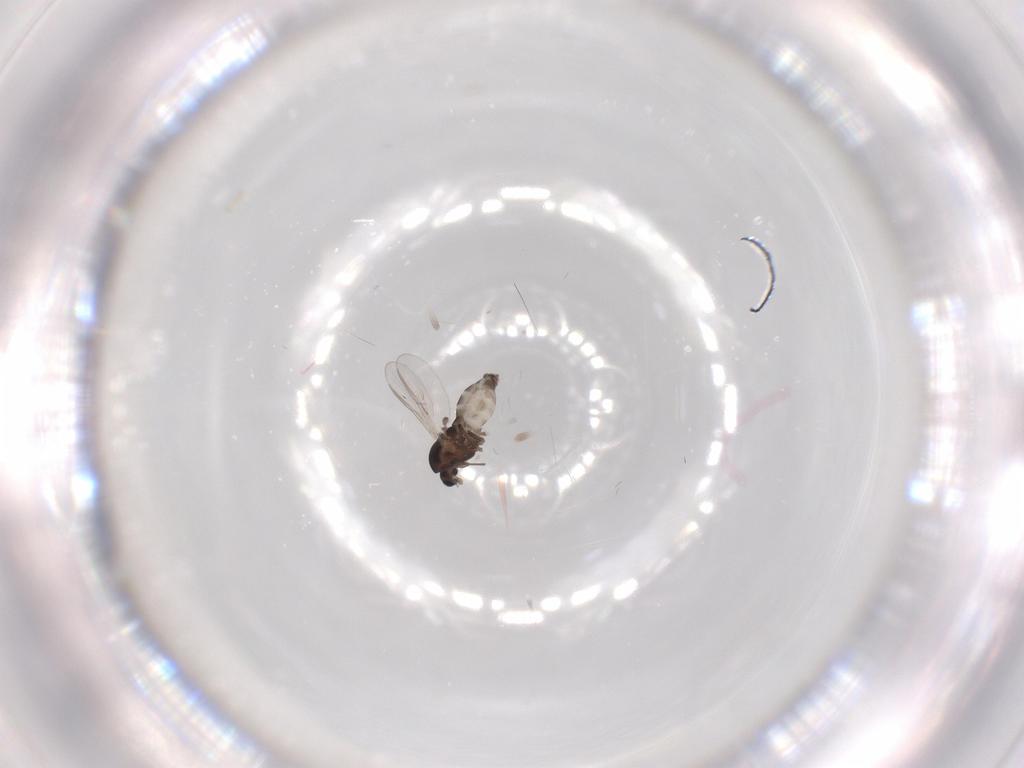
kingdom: Animalia
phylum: Arthropoda
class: Insecta
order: Diptera
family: Chironomidae
